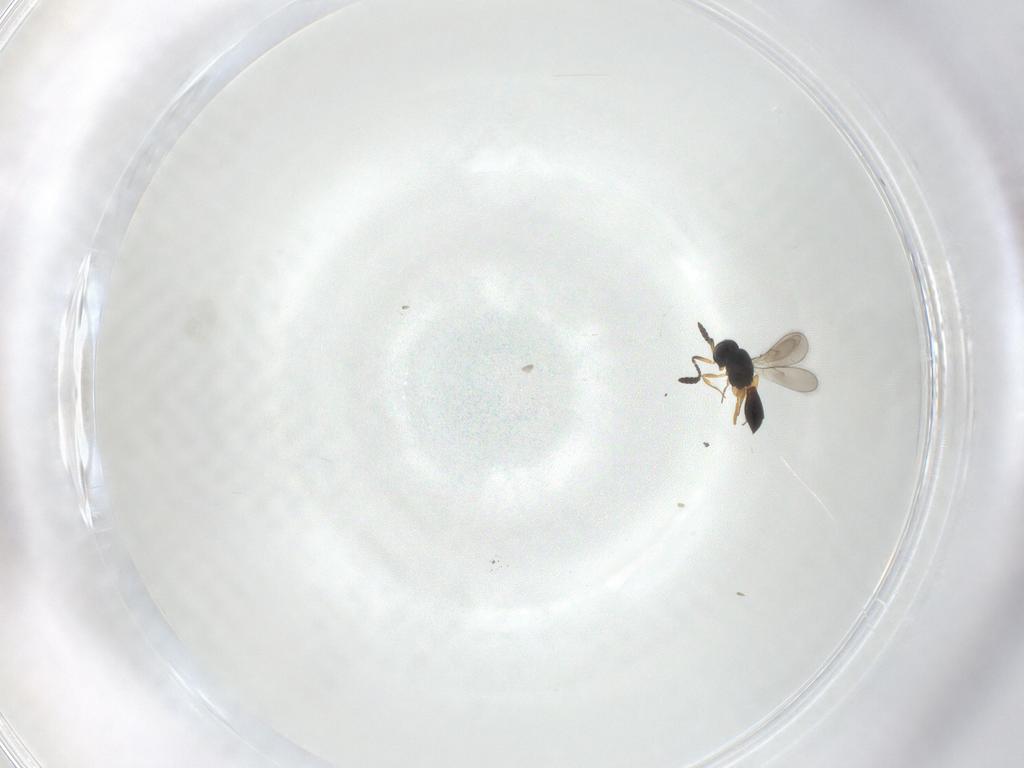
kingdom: Animalia
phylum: Arthropoda
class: Insecta
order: Hymenoptera
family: Scelionidae
